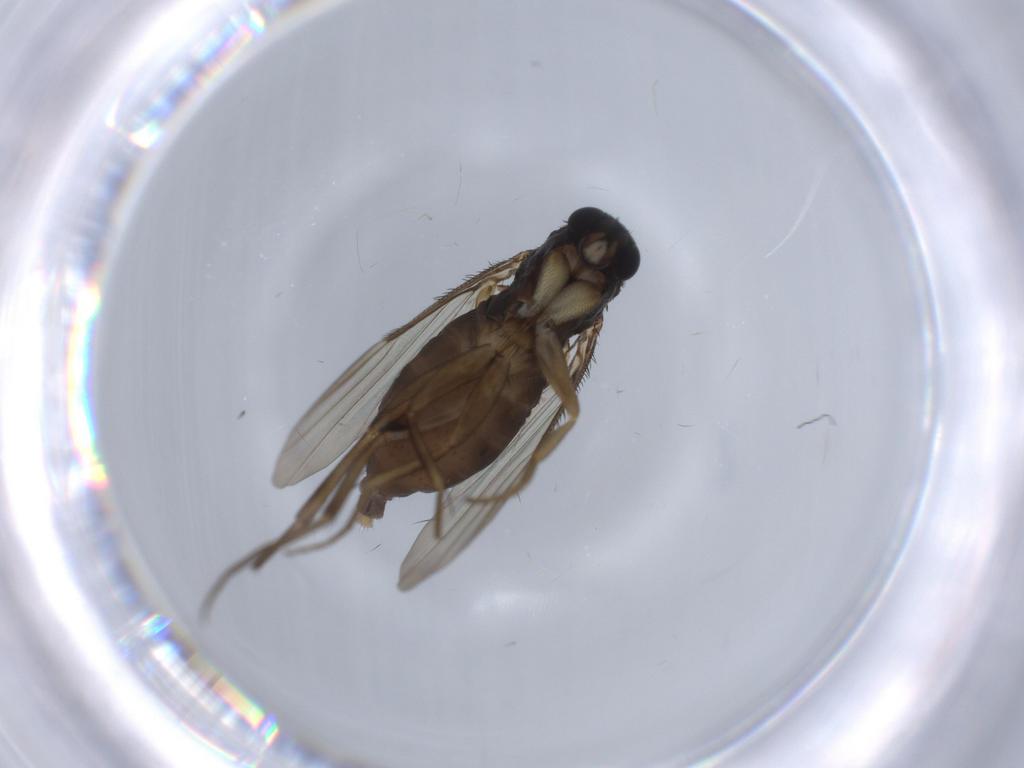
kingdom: Animalia
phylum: Arthropoda
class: Insecta
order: Diptera
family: Phoridae
